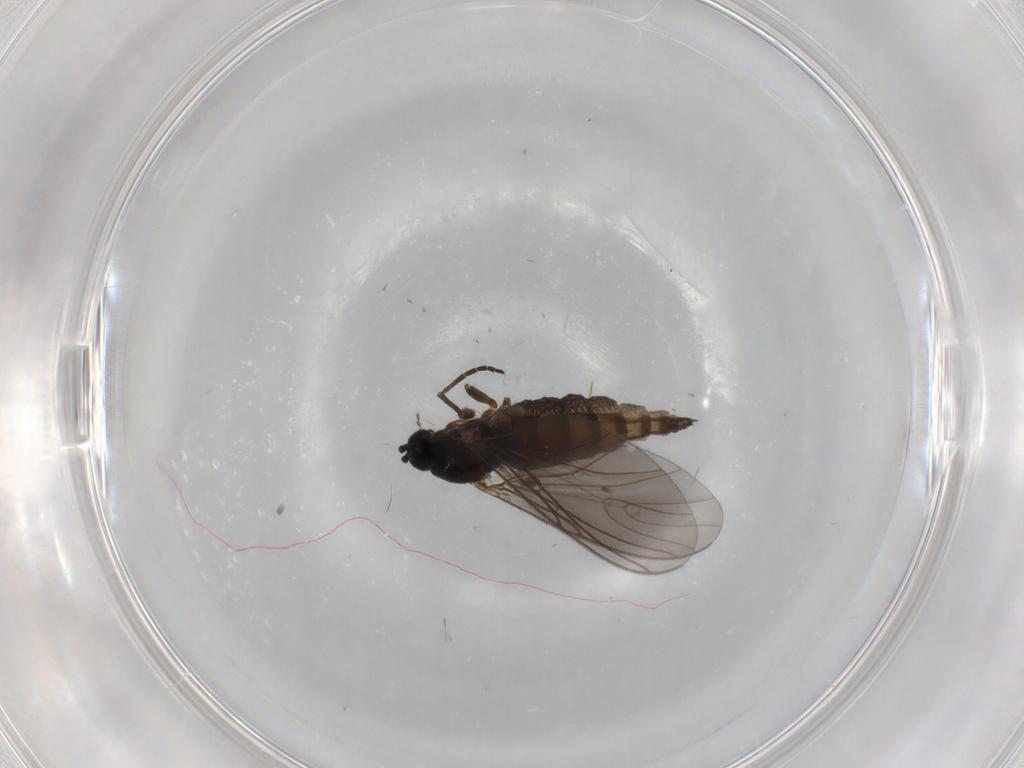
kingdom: Animalia
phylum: Arthropoda
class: Insecta
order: Diptera
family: Sciaridae
